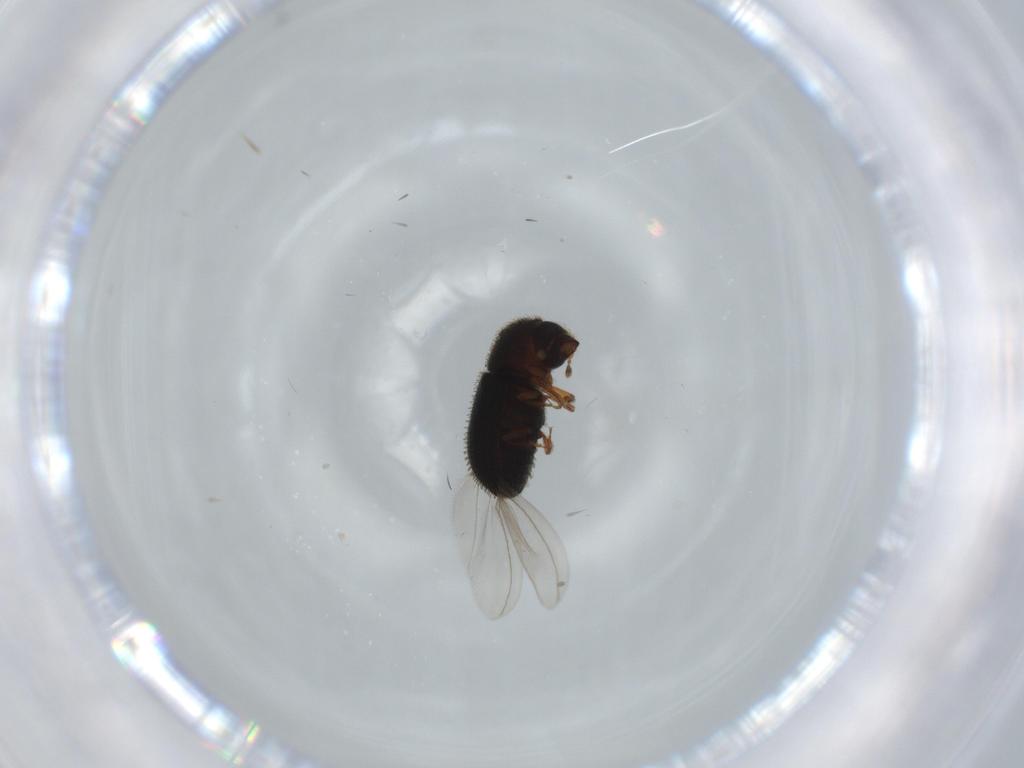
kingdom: Animalia
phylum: Arthropoda
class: Insecta
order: Coleoptera
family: Curculionidae
